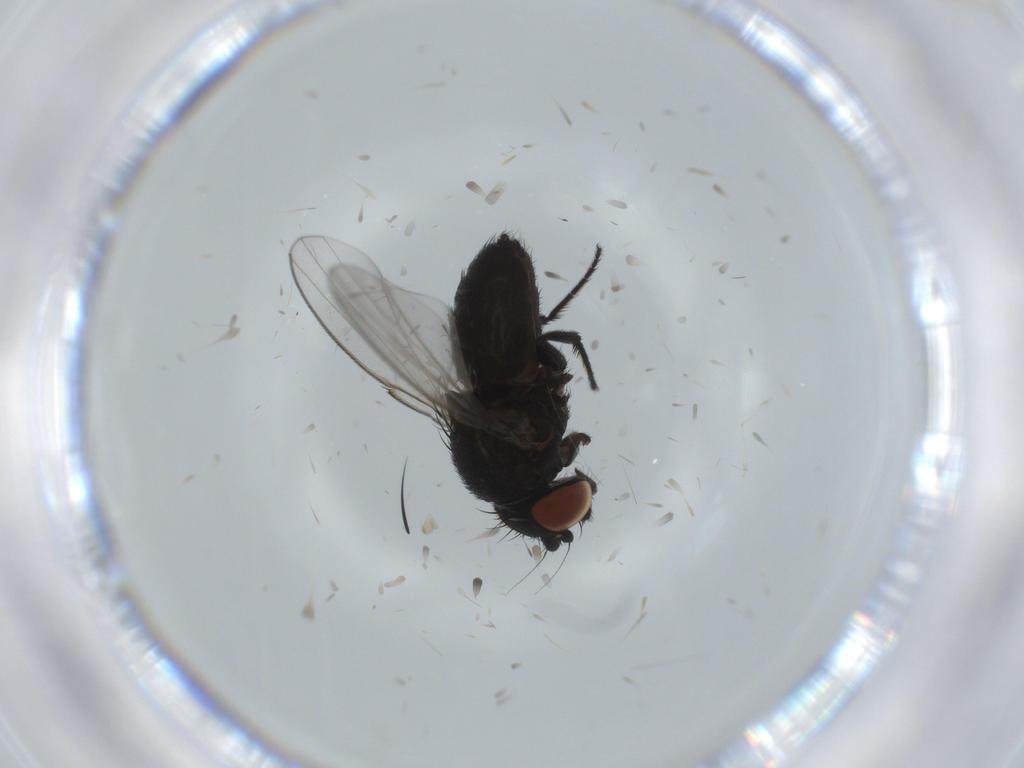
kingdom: Animalia
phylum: Arthropoda
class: Insecta
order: Diptera
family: Milichiidae
